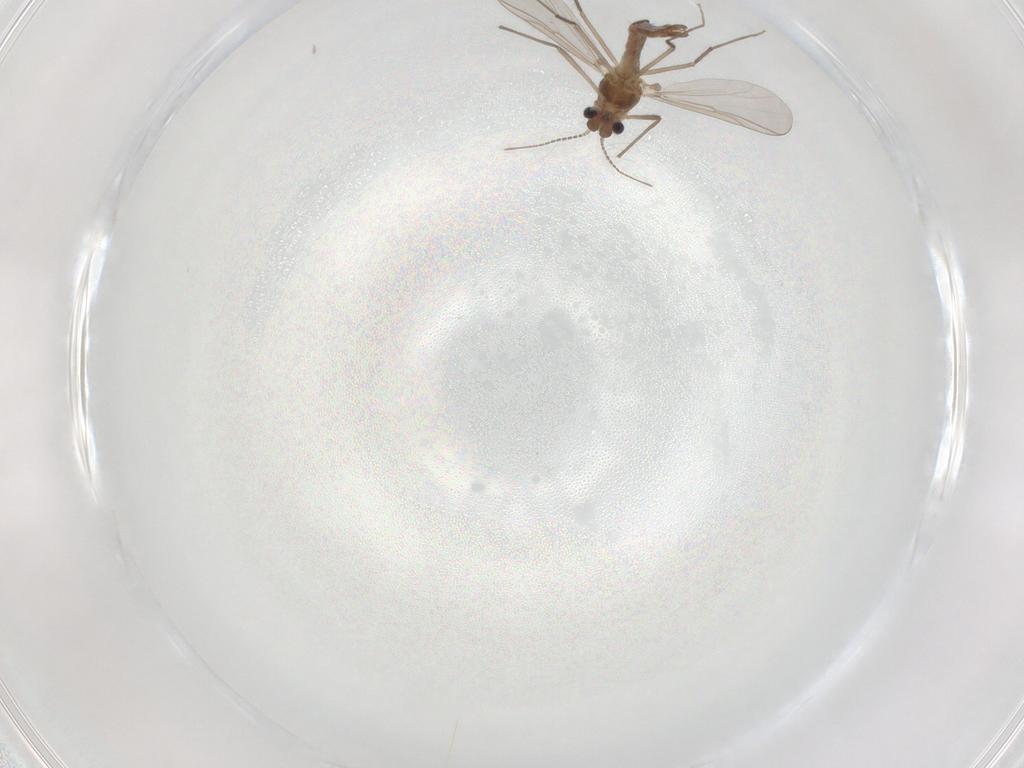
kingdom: Animalia
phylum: Arthropoda
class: Insecta
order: Diptera
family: Chironomidae
